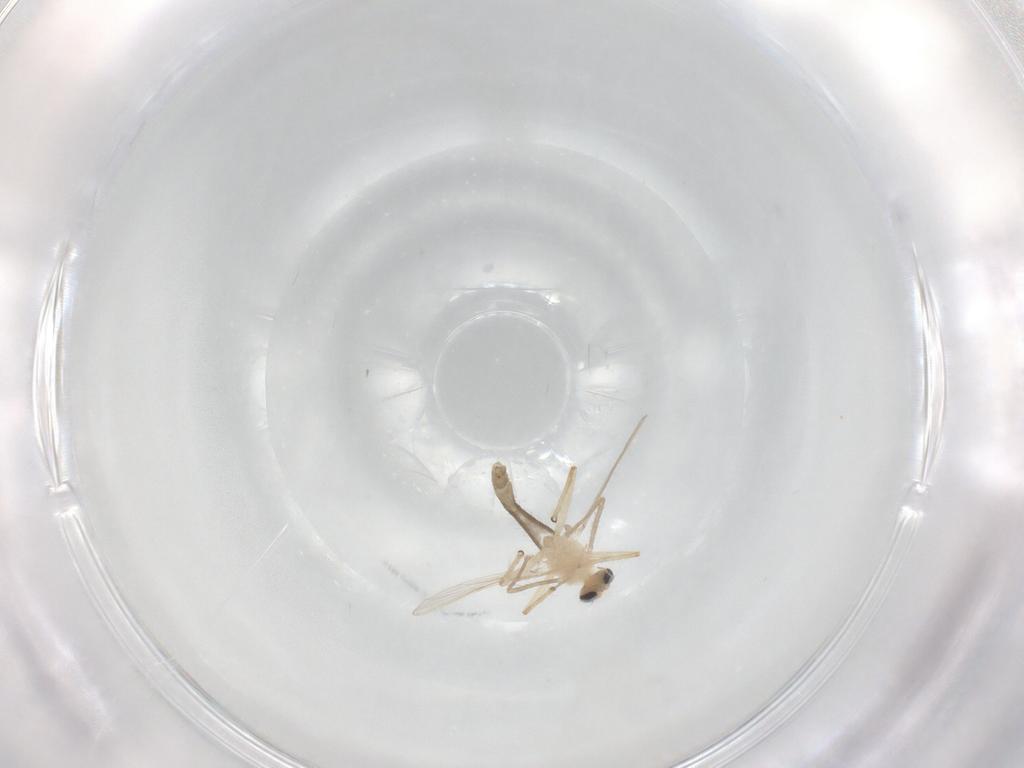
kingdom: Animalia
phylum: Arthropoda
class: Insecta
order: Diptera
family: Chironomidae
